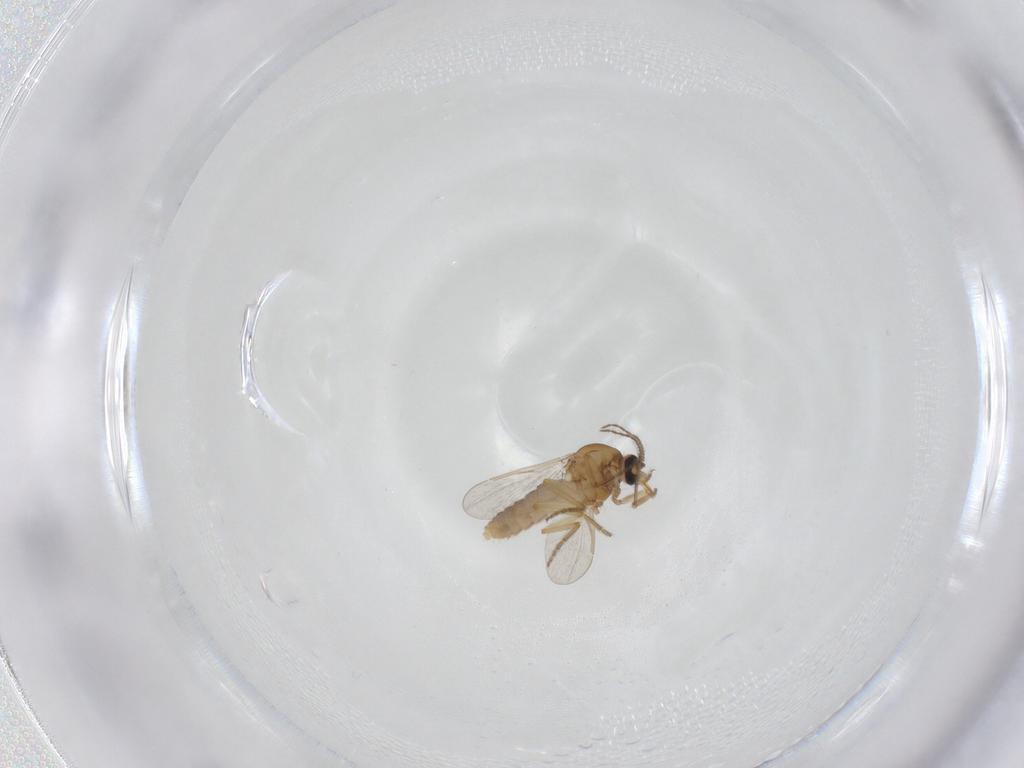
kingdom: Animalia
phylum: Arthropoda
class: Insecta
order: Diptera
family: Ceratopogonidae
